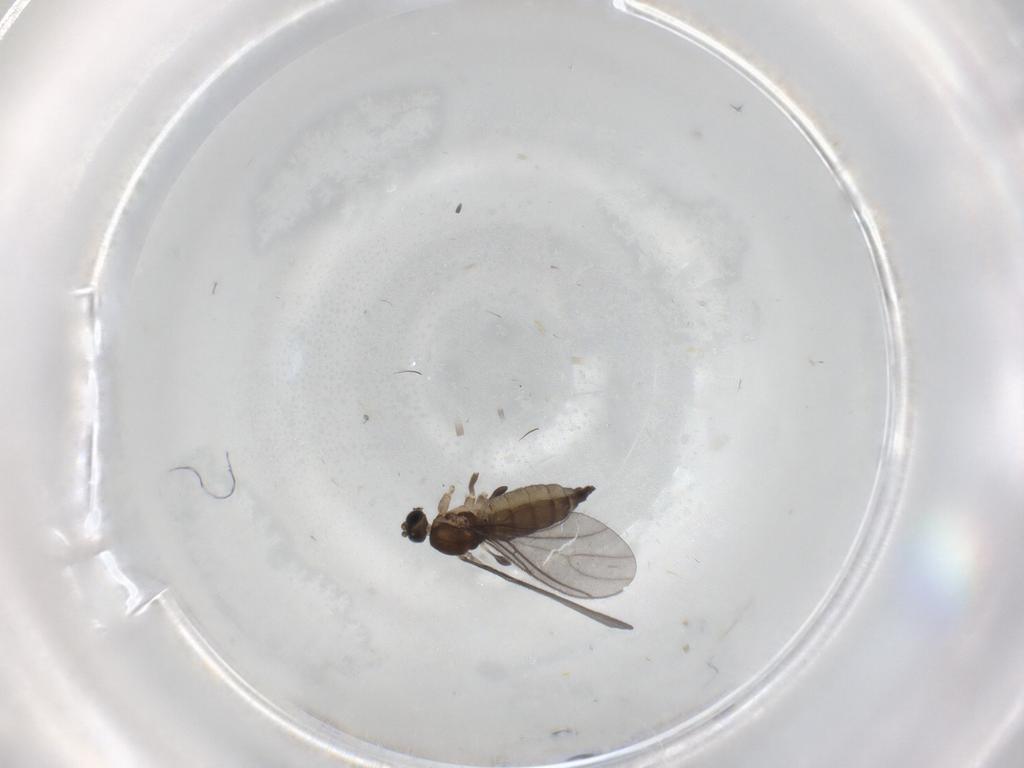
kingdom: Animalia
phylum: Arthropoda
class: Insecta
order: Diptera
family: Sciaridae
